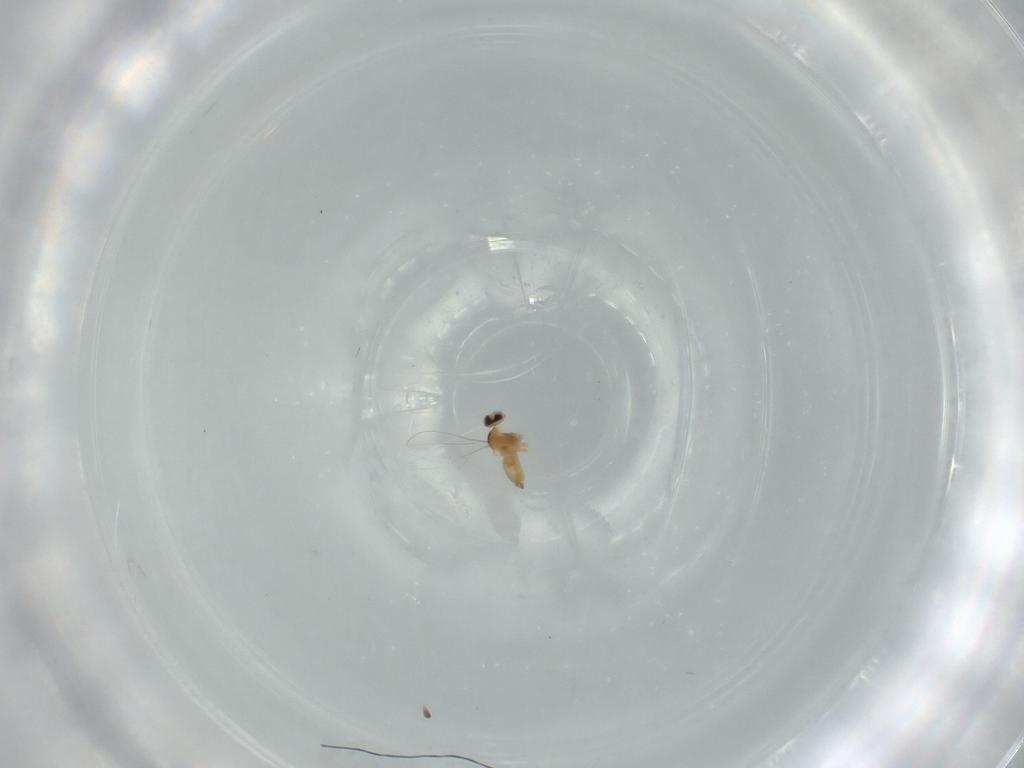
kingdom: Animalia
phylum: Arthropoda
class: Insecta
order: Diptera
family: Cecidomyiidae
